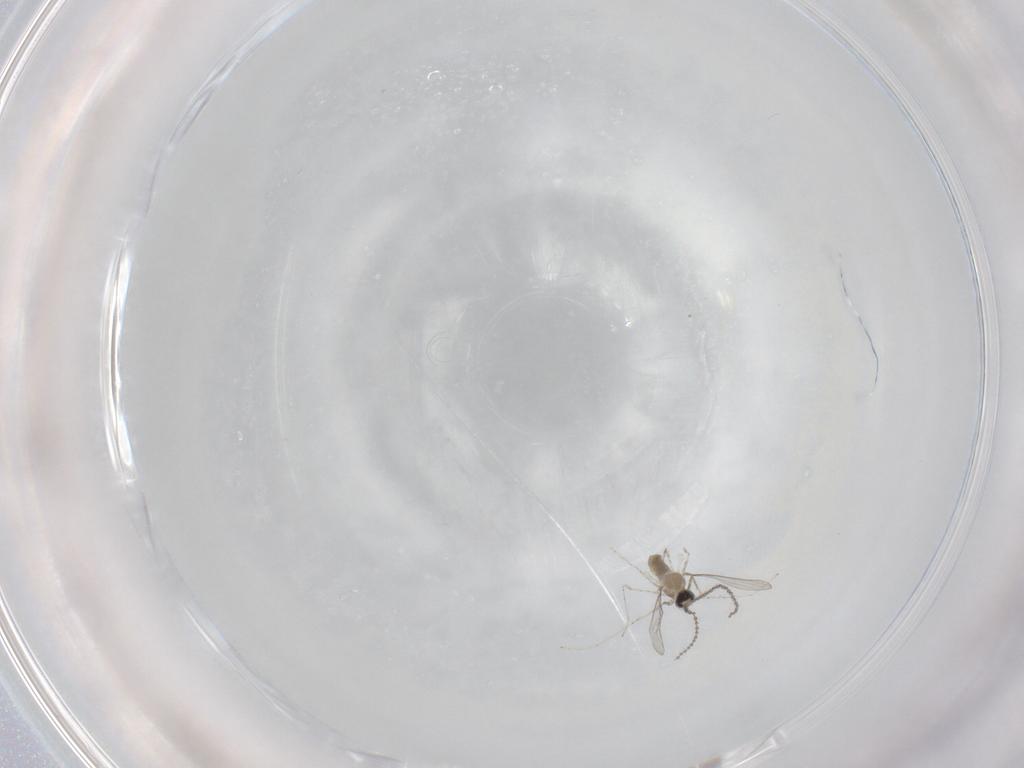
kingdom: Animalia
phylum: Arthropoda
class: Insecta
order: Diptera
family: Cecidomyiidae
